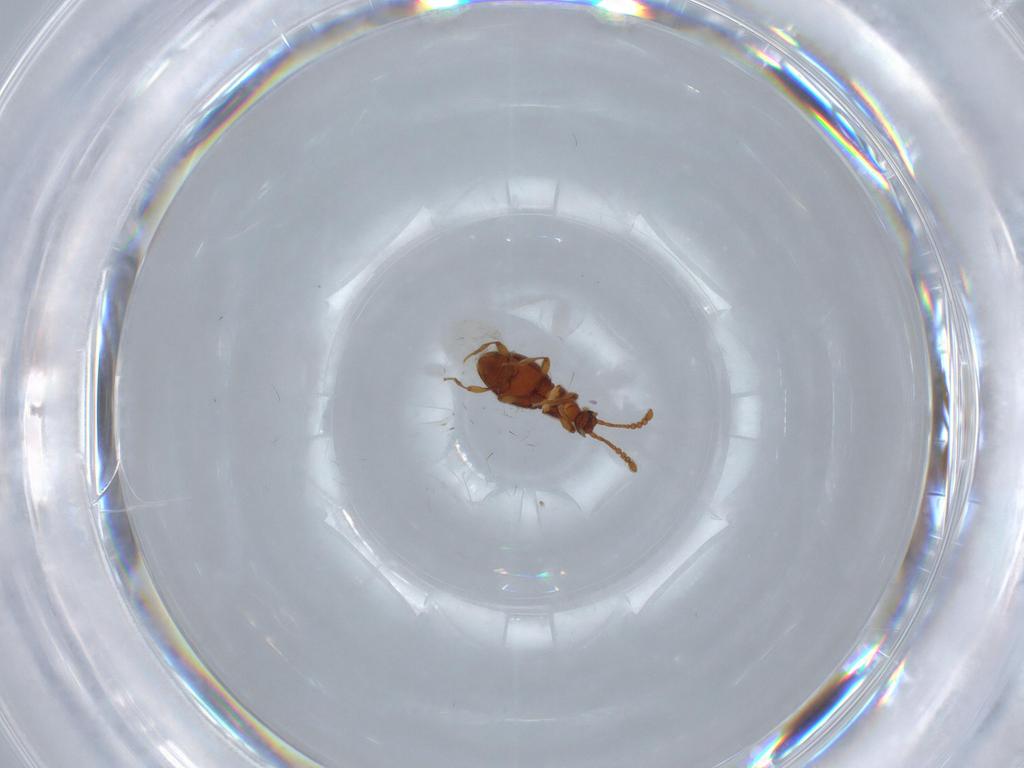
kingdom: Animalia
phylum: Arthropoda
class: Insecta
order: Coleoptera
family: Staphylinidae
